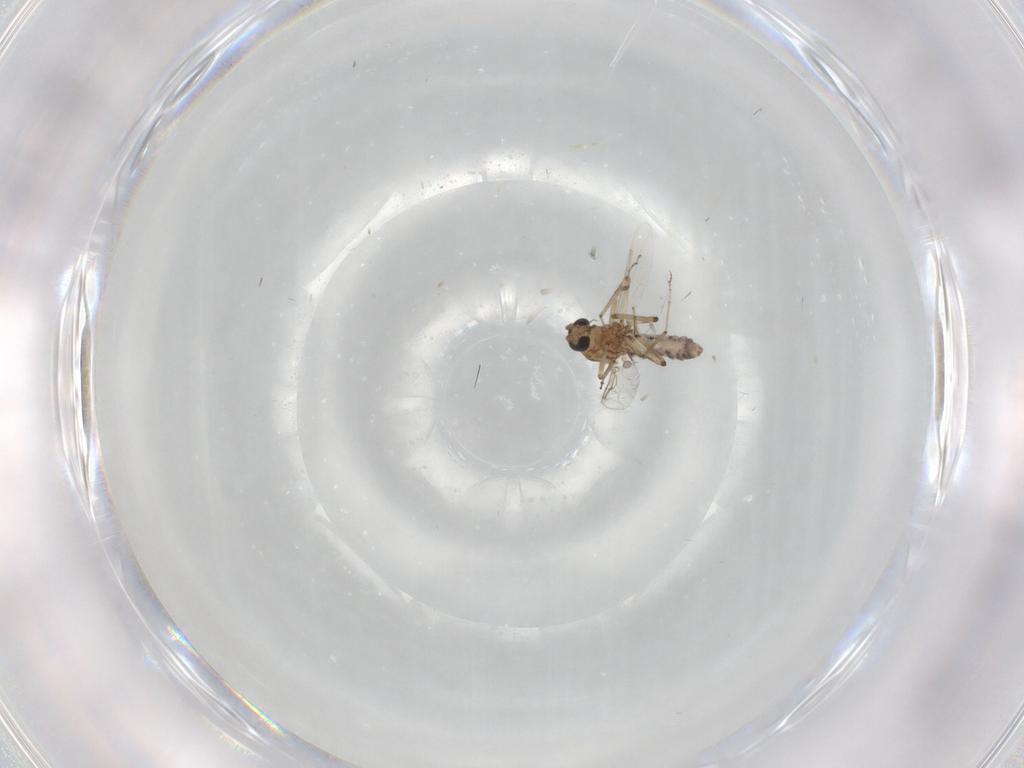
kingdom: Animalia
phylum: Arthropoda
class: Insecta
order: Diptera
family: Ceratopogonidae
